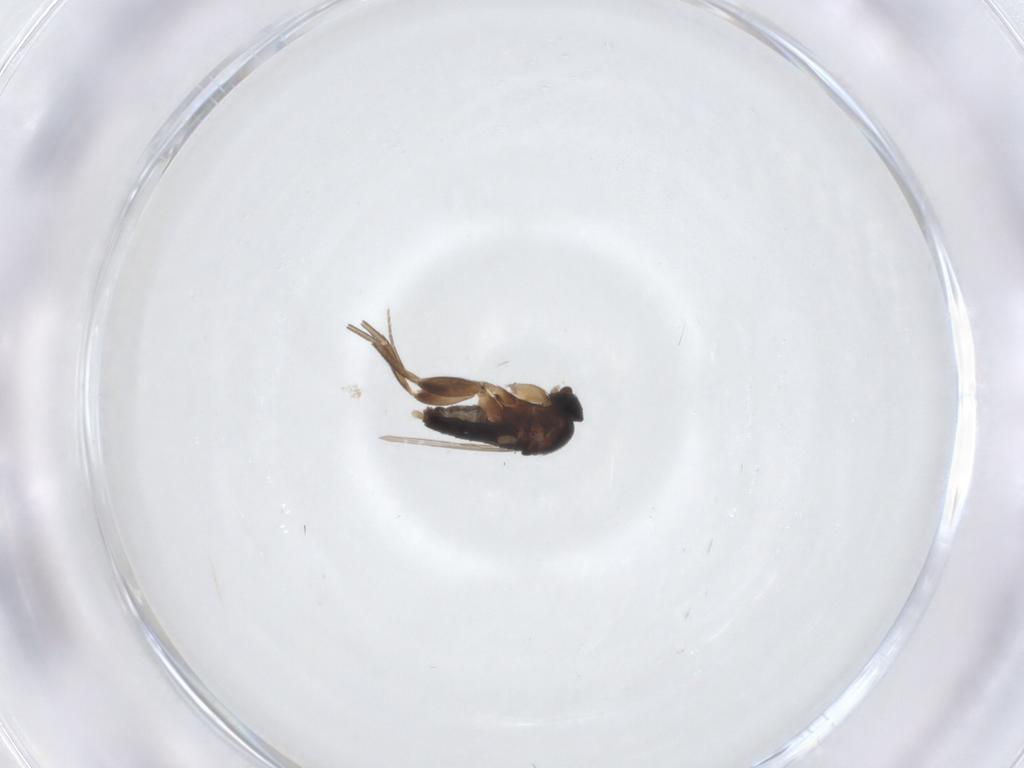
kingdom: Animalia
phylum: Arthropoda
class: Insecta
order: Diptera
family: Phoridae
